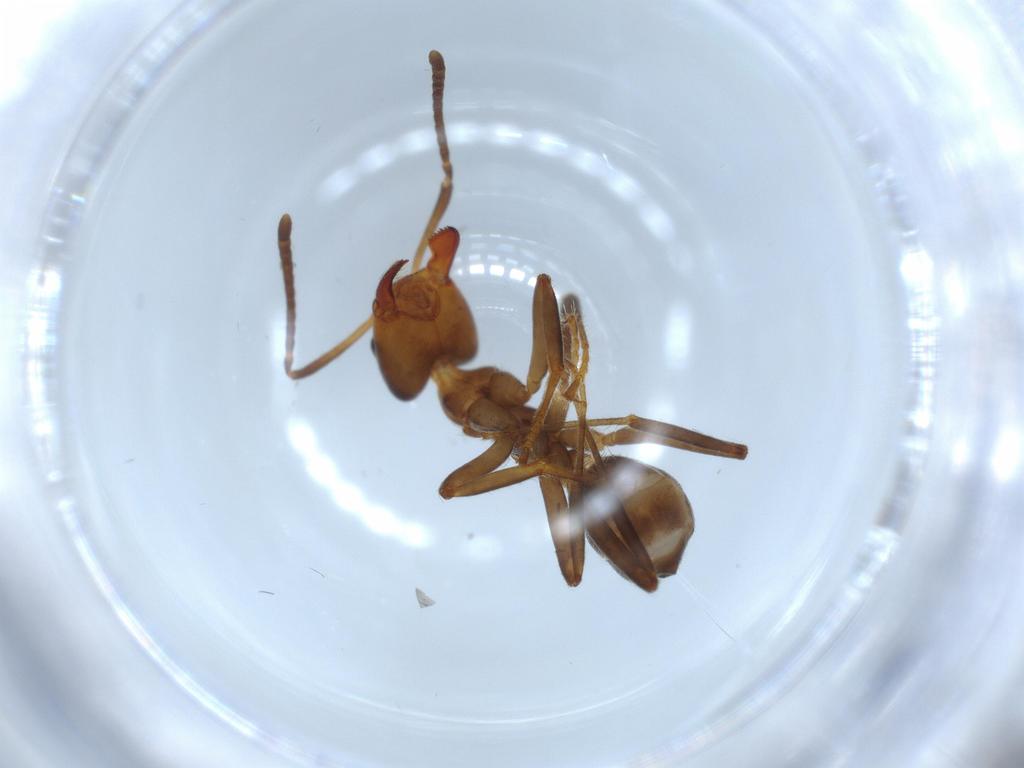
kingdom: Animalia
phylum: Arthropoda
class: Insecta
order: Hymenoptera
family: Formicidae
